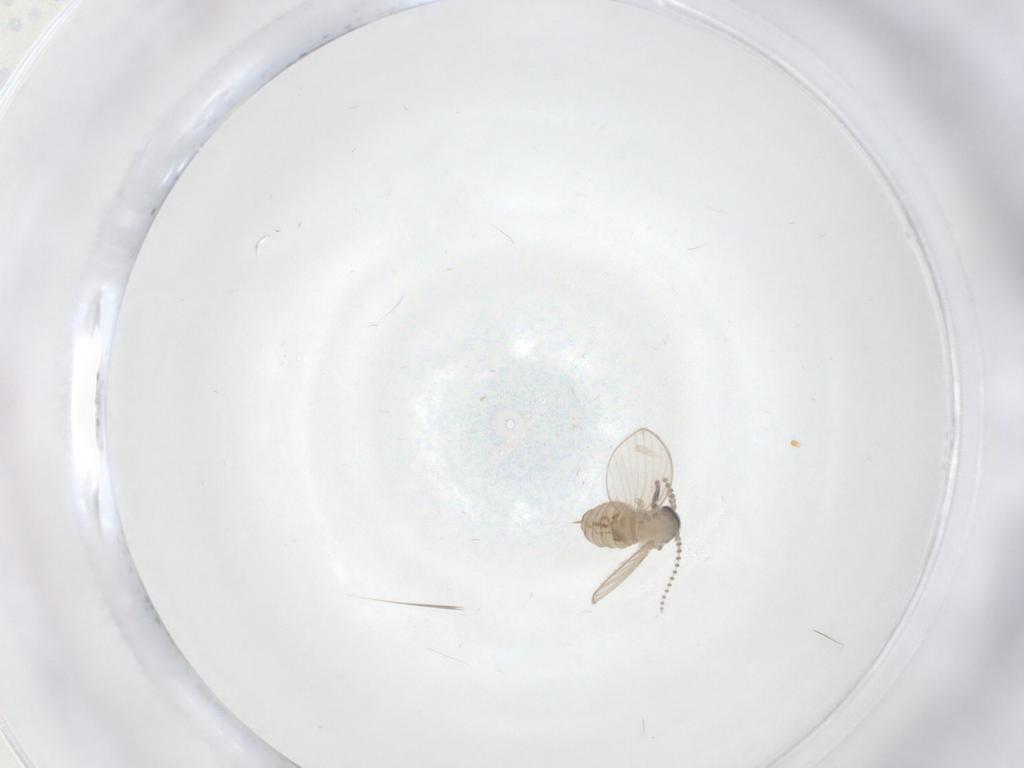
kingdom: Animalia
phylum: Arthropoda
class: Insecta
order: Diptera
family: Psychodidae
